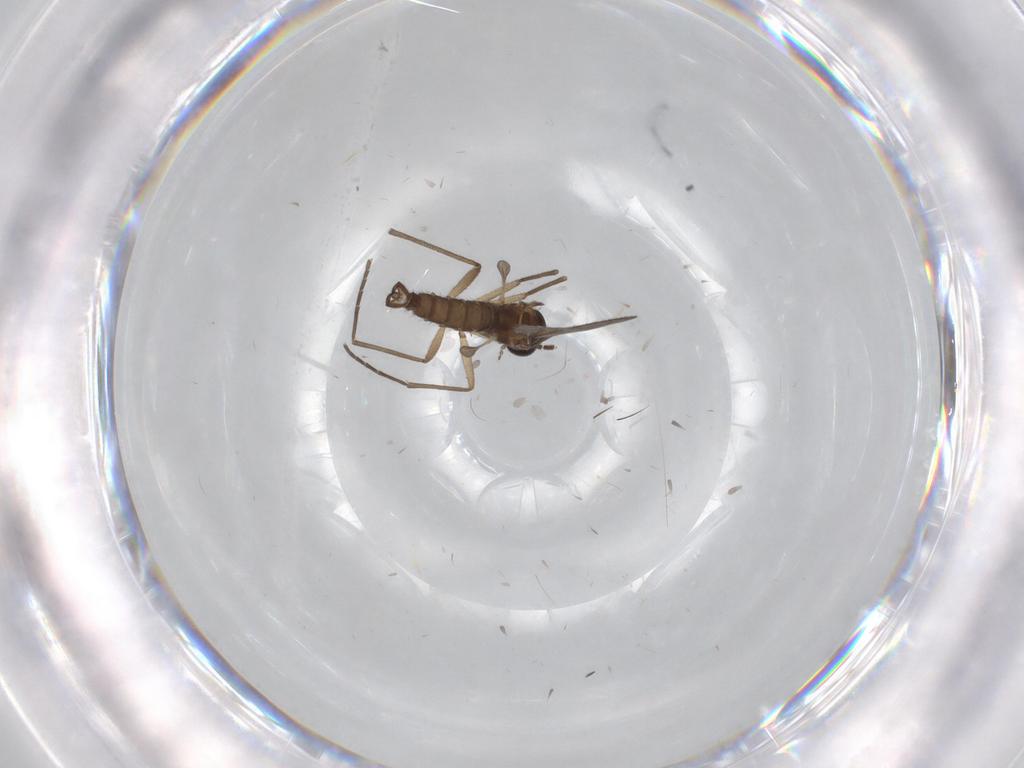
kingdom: Animalia
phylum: Arthropoda
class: Insecta
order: Diptera
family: Sciaridae
